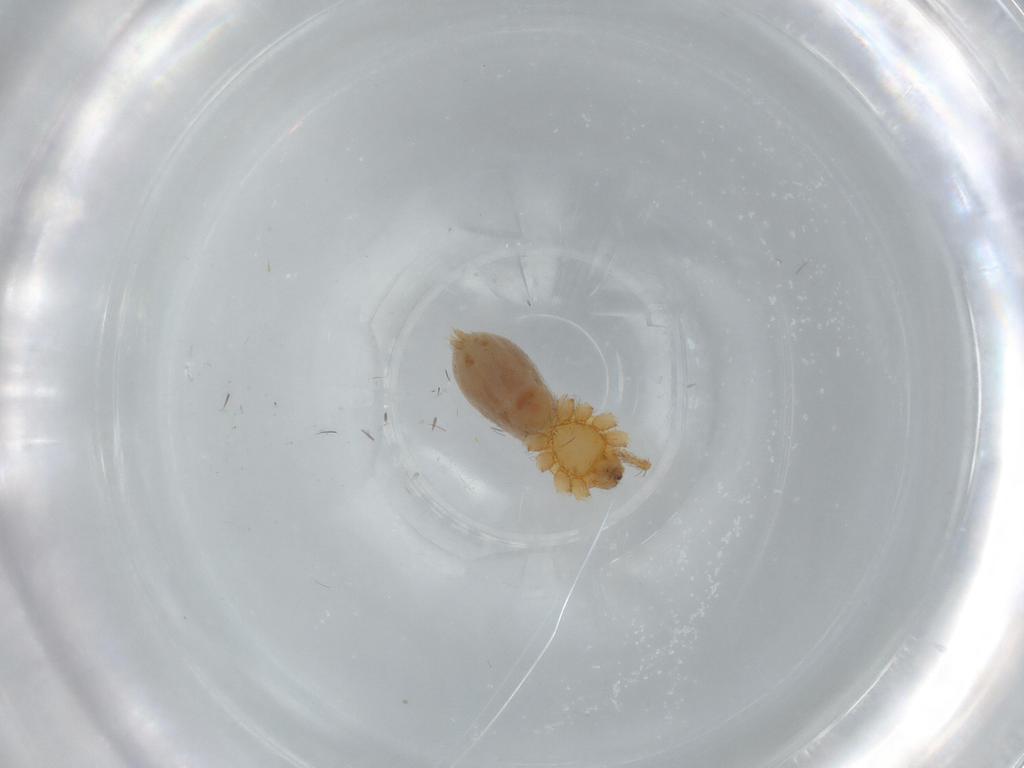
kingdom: Animalia
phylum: Arthropoda
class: Arachnida
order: Araneae
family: Oonopidae
